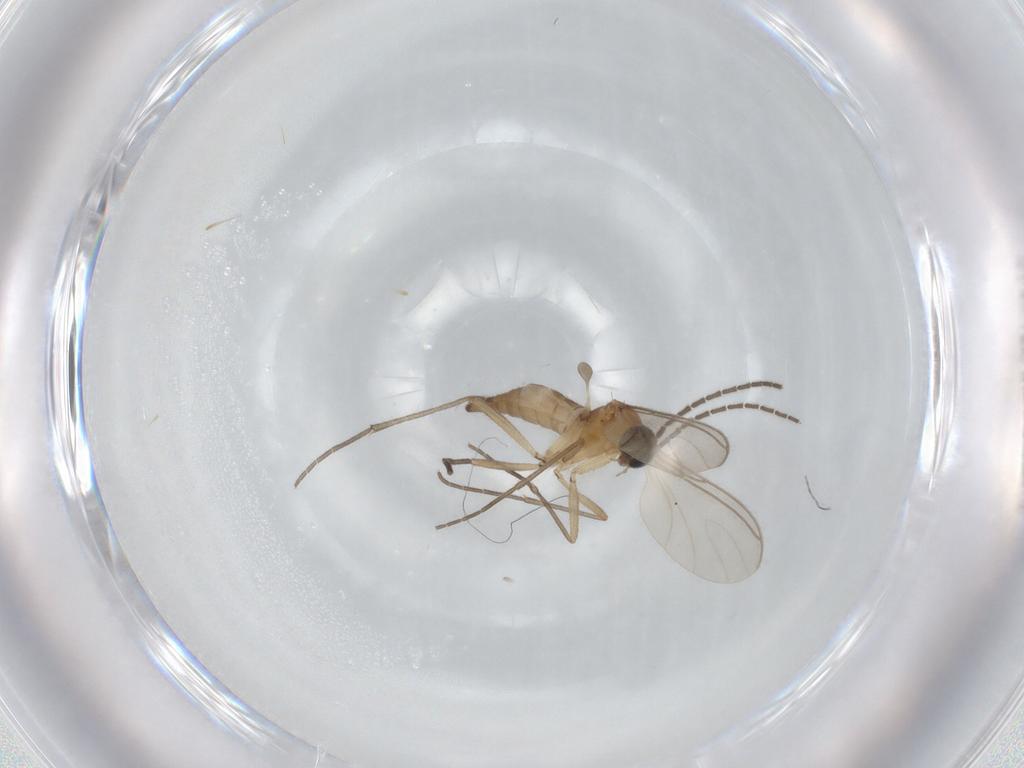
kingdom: Animalia
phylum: Arthropoda
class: Insecta
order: Diptera
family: Sciaridae
